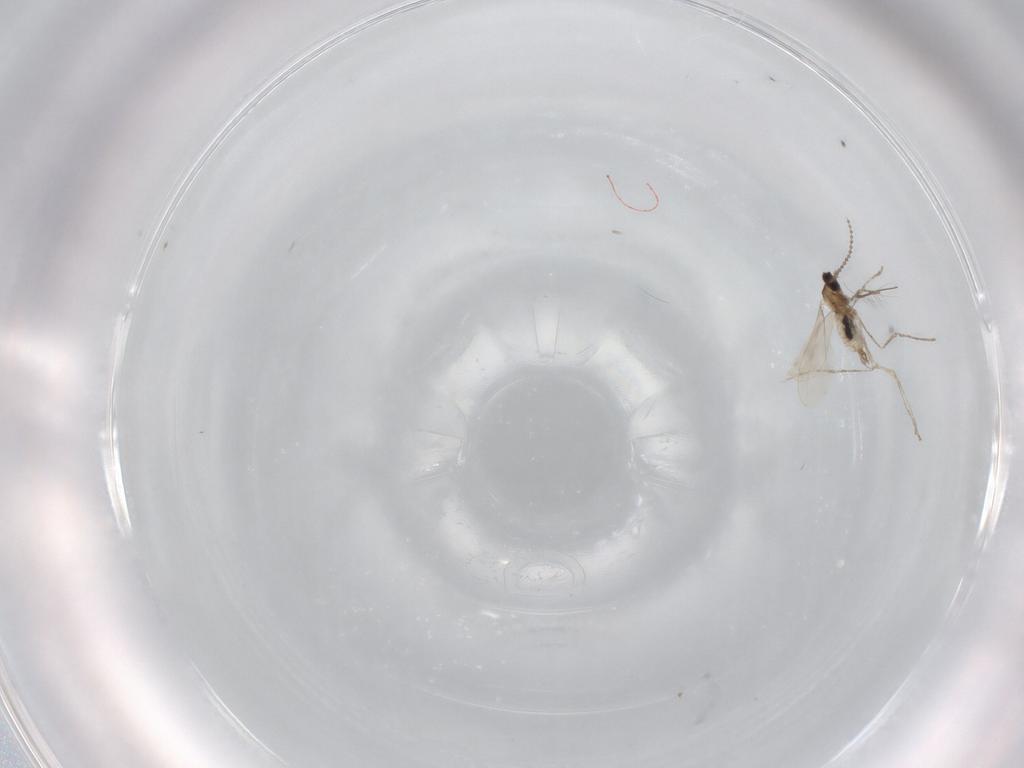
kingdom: Animalia
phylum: Arthropoda
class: Insecta
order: Diptera
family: Cecidomyiidae
